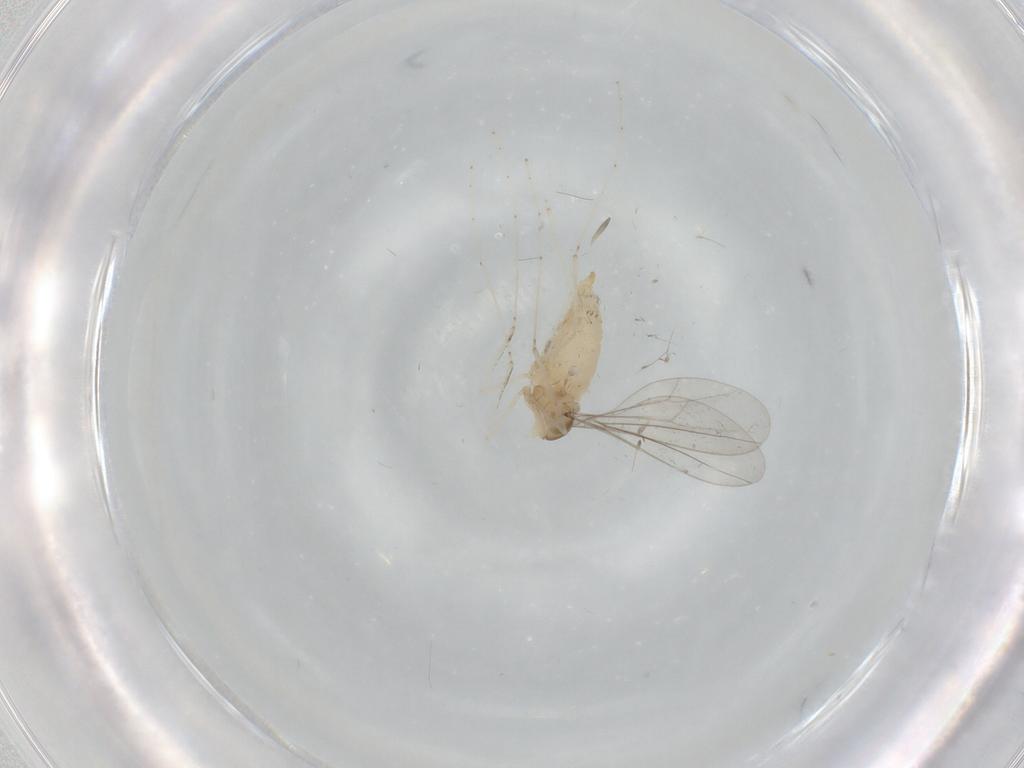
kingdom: Animalia
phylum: Arthropoda
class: Insecta
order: Diptera
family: Cecidomyiidae
